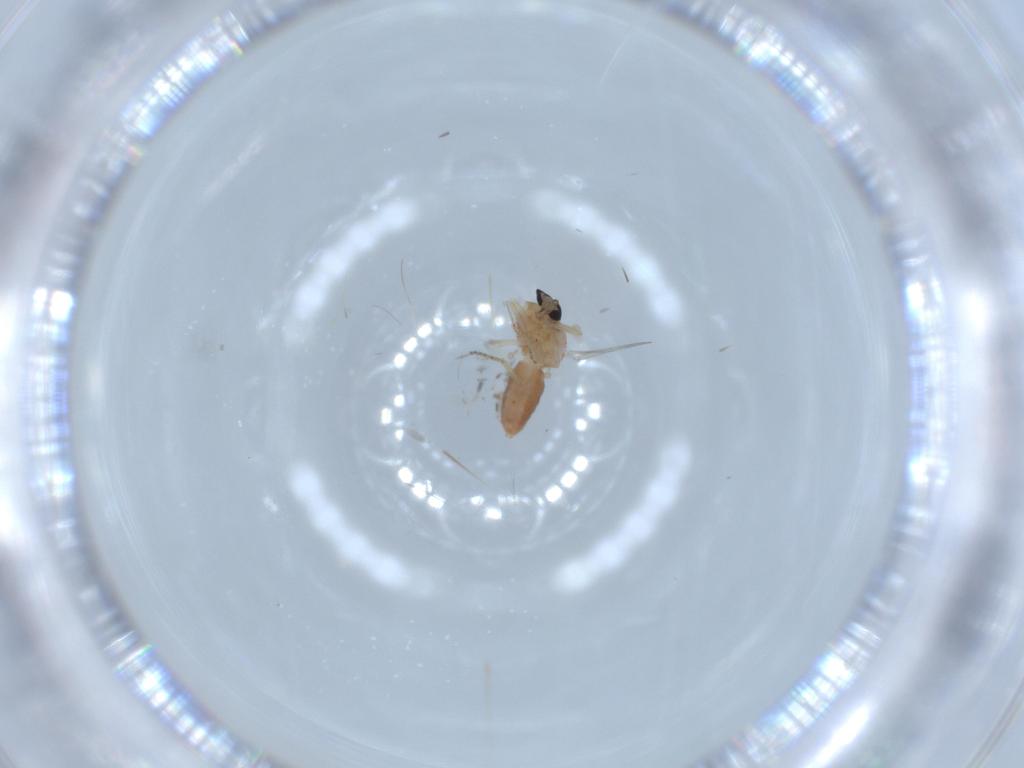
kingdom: Animalia
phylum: Arthropoda
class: Insecta
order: Diptera
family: Ceratopogonidae
